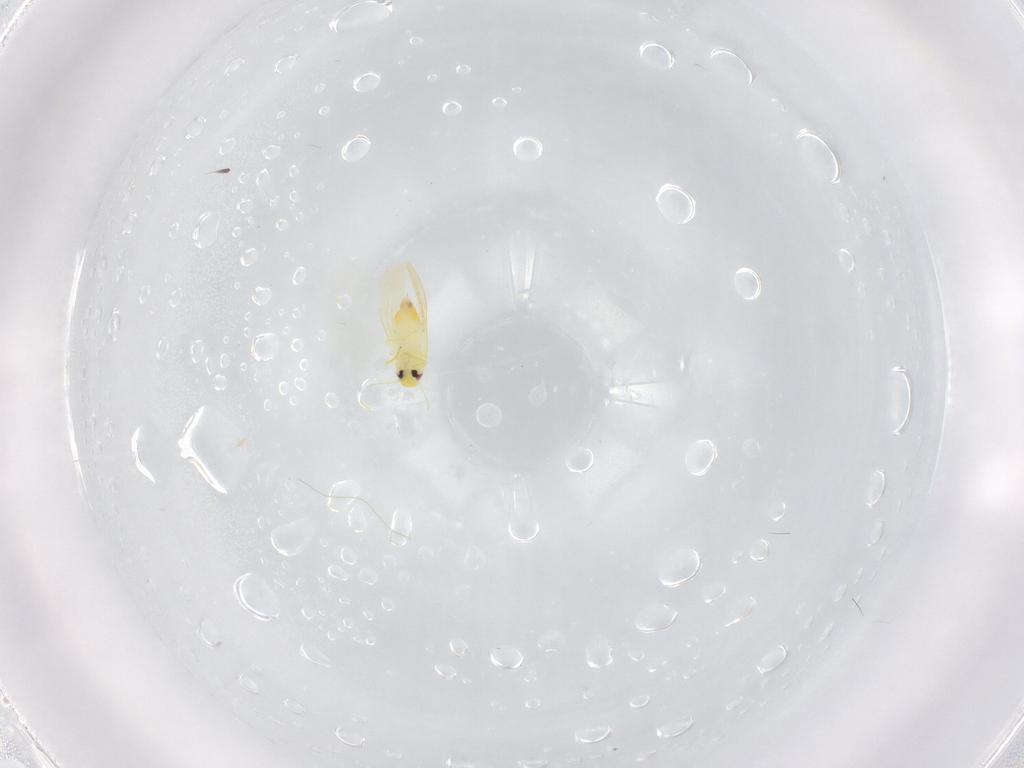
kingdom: Animalia
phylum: Arthropoda
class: Insecta
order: Hemiptera
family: Aleyrodidae
